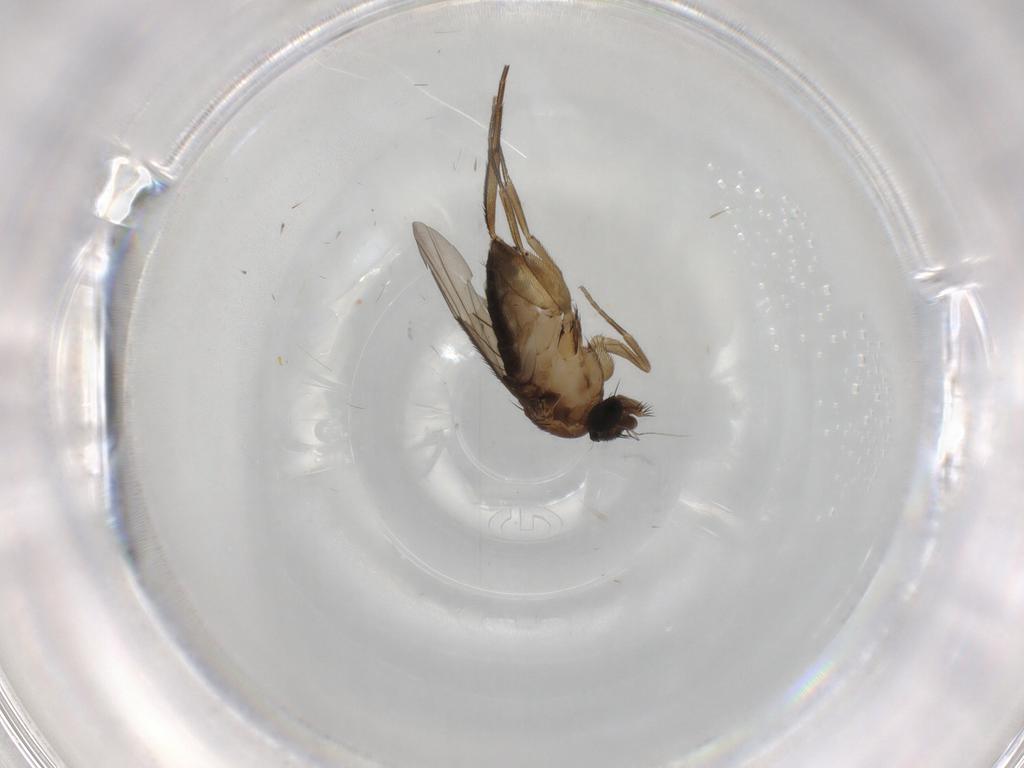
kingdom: Animalia
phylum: Arthropoda
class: Insecta
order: Diptera
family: Phoridae
